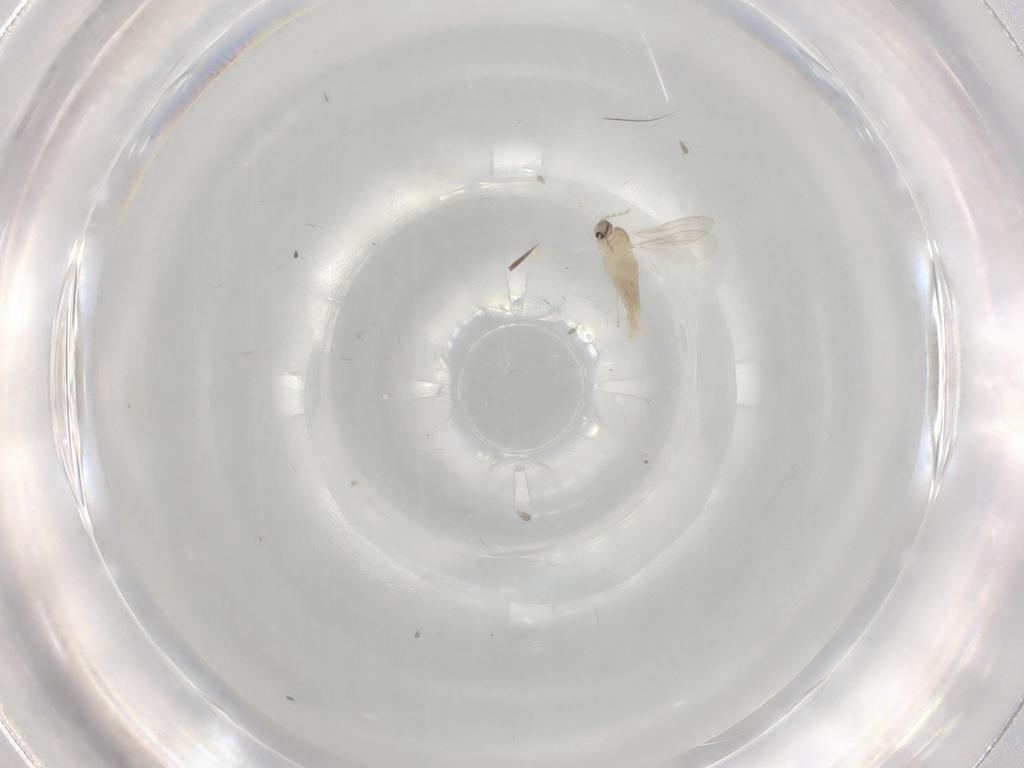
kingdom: Animalia
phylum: Arthropoda
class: Insecta
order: Diptera
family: Cecidomyiidae
